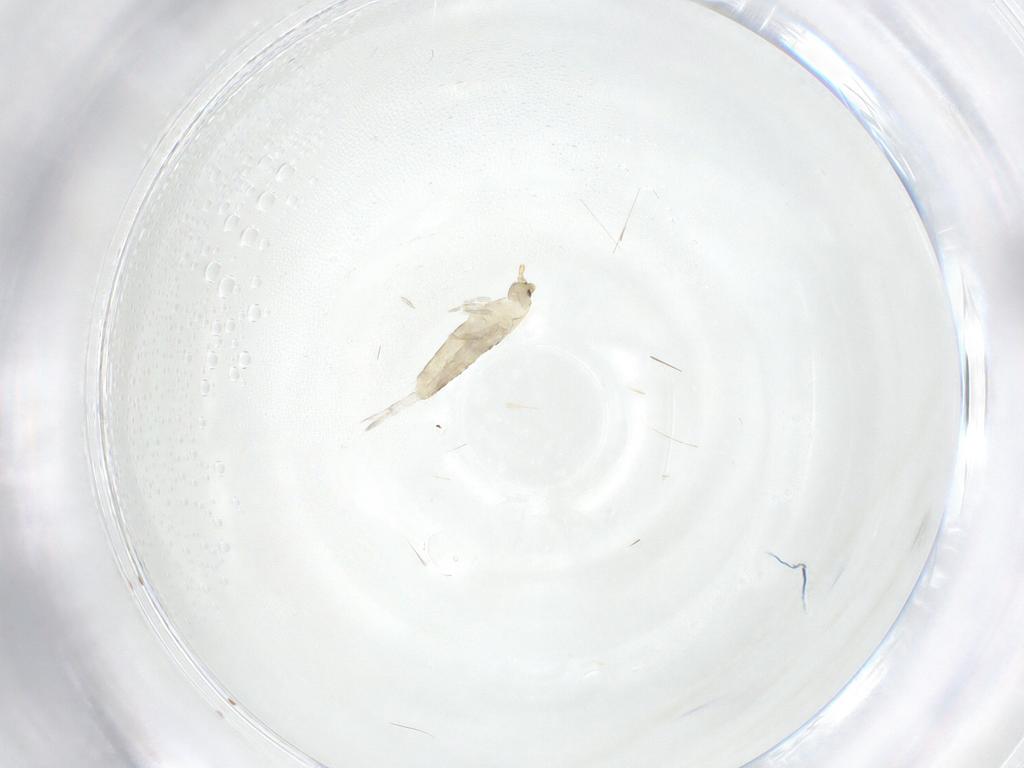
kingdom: Animalia
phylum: Arthropoda
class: Collembola
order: Entomobryomorpha
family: Entomobryidae
